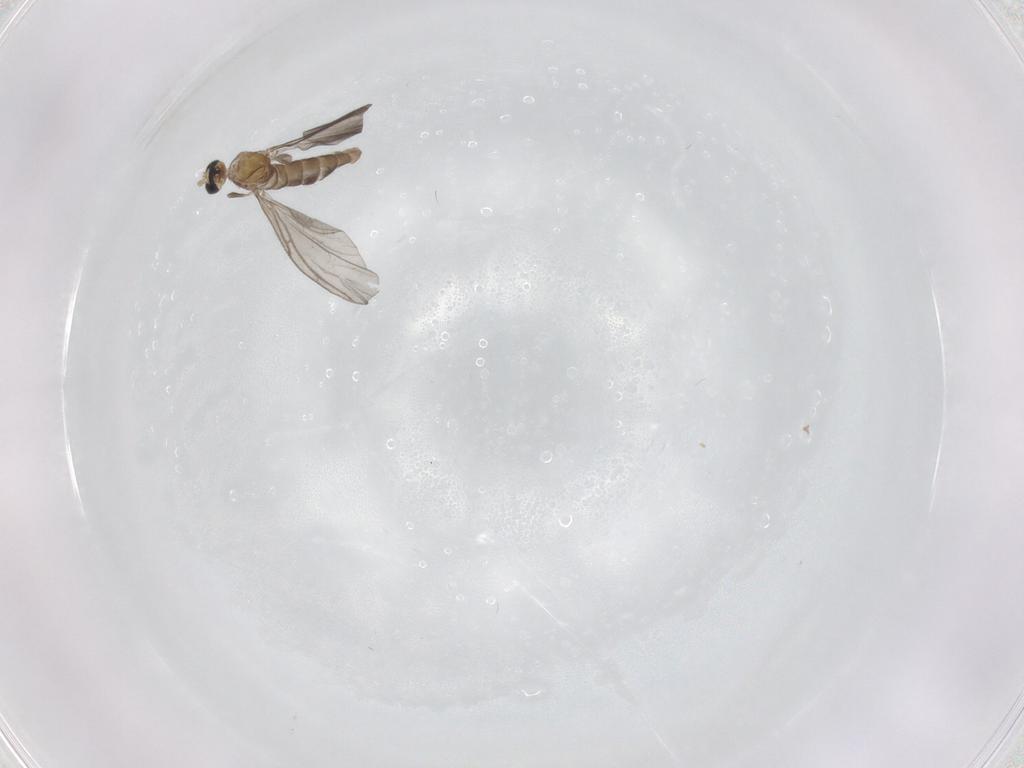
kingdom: Animalia
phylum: Arthropoda
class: Insecta
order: Diptera
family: Sciaridae
